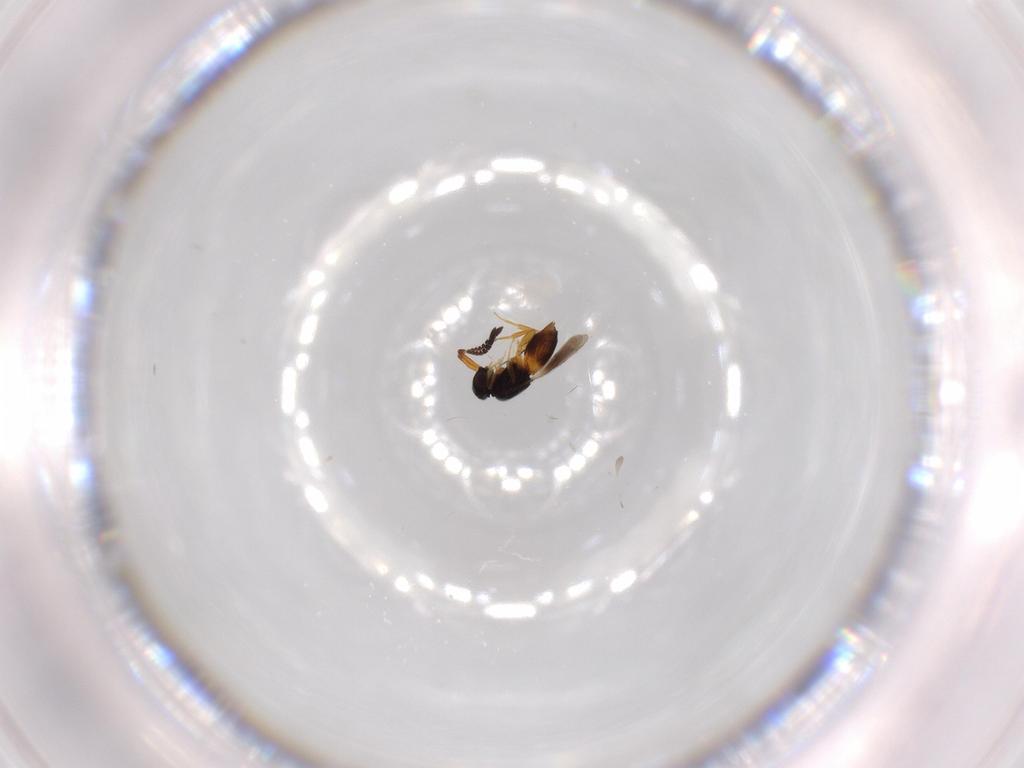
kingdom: Animalia
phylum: Arthropoda
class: Insecta
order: Hymenoptera
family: Scelionidae
